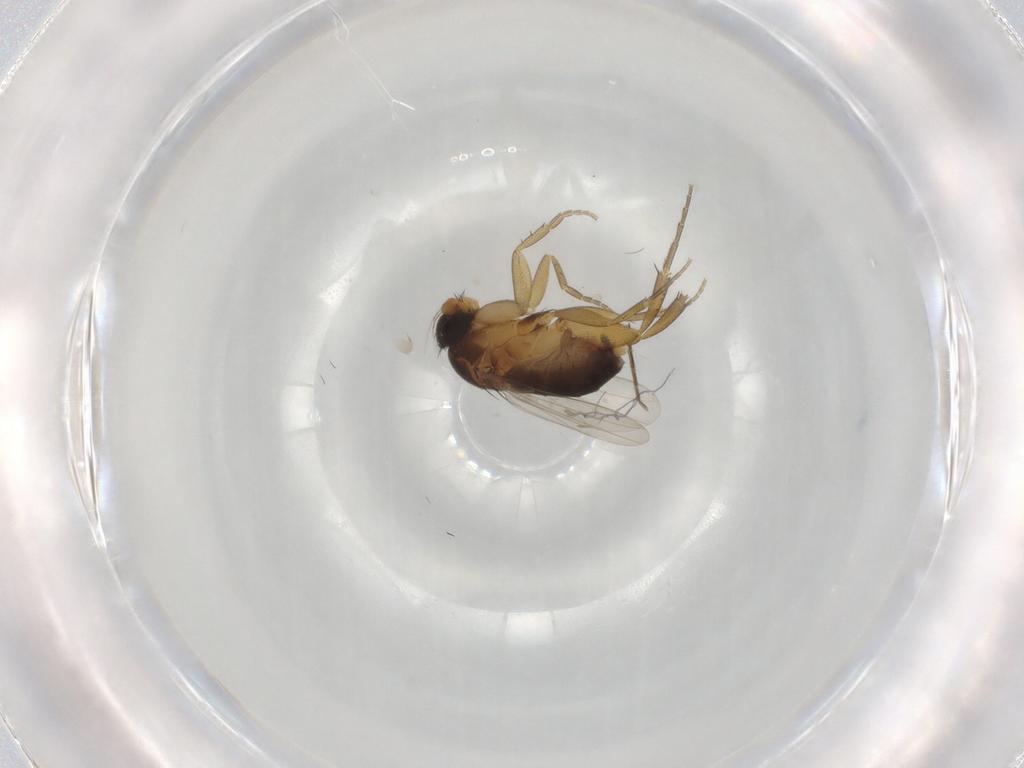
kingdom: Animalia
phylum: Arthropoda
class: Insecta
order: Diptera
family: Phoridae
